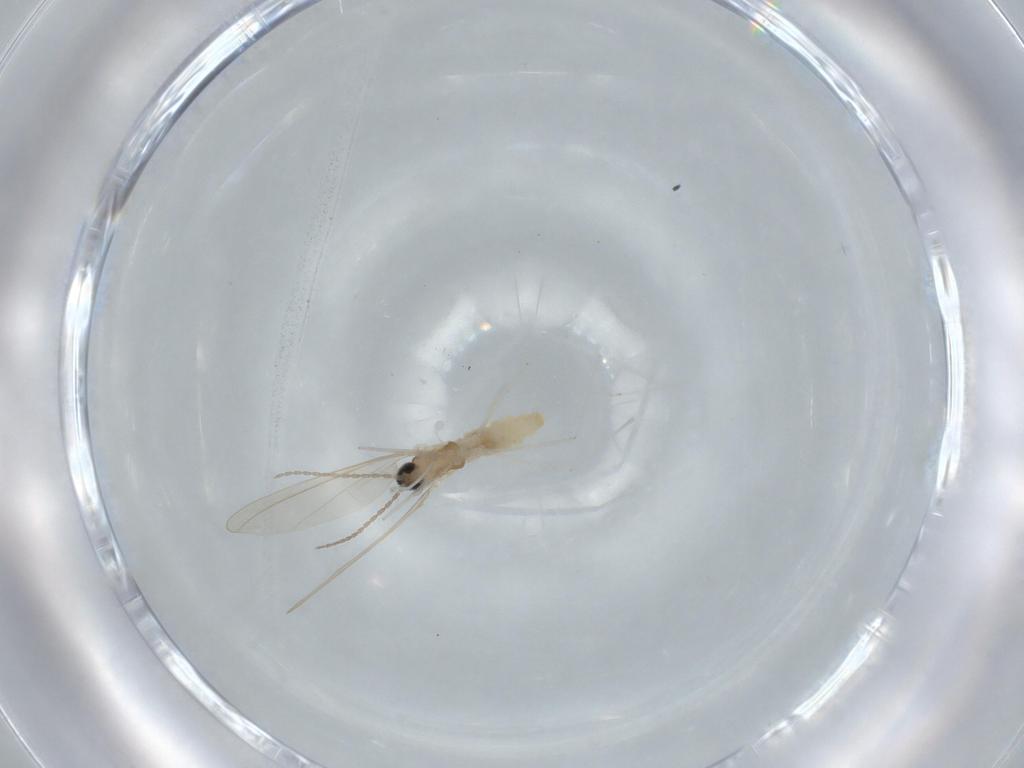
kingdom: Animalia
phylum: Arthropoda
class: Insecta
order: Diptera
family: Cecidomyiidae
